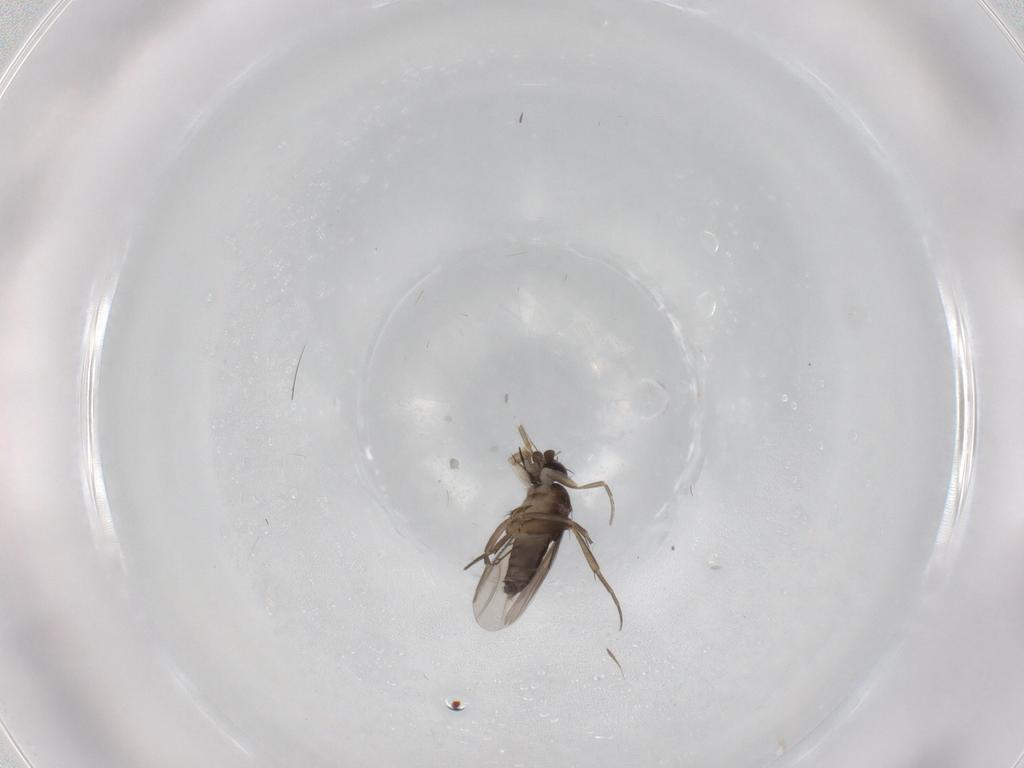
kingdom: Animalia
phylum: Arthropoda
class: Insecta
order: Diptera
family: Phoridae
